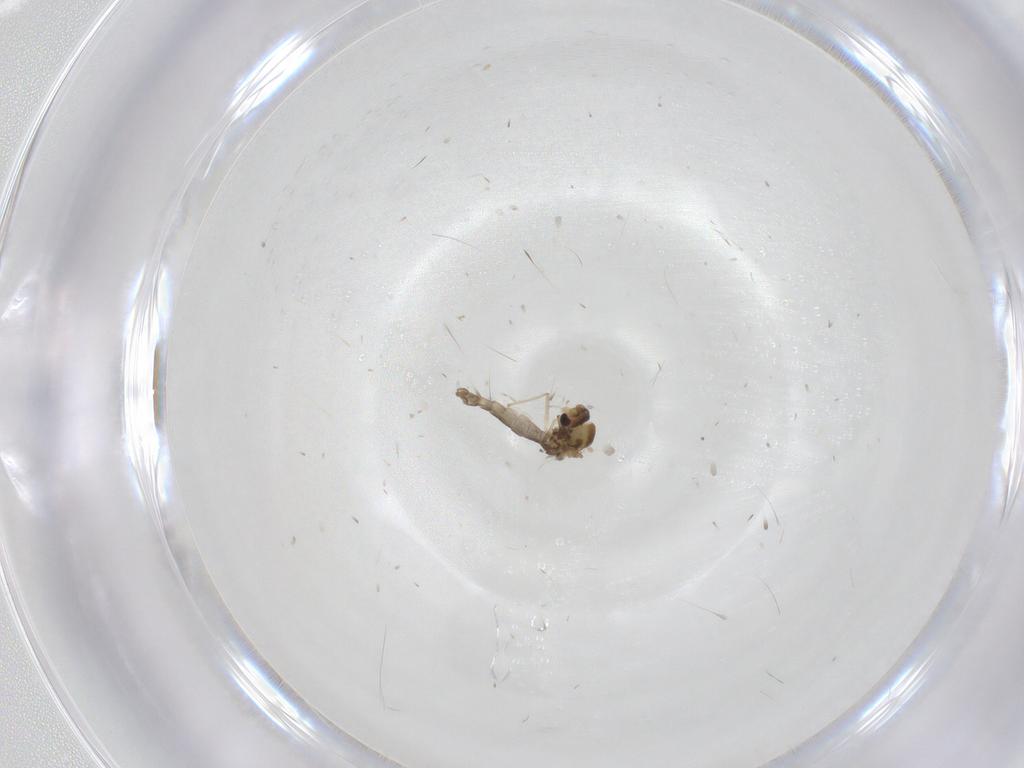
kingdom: Animalia
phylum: Arthropoda
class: Insecta
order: Diptera
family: Chironomidae
